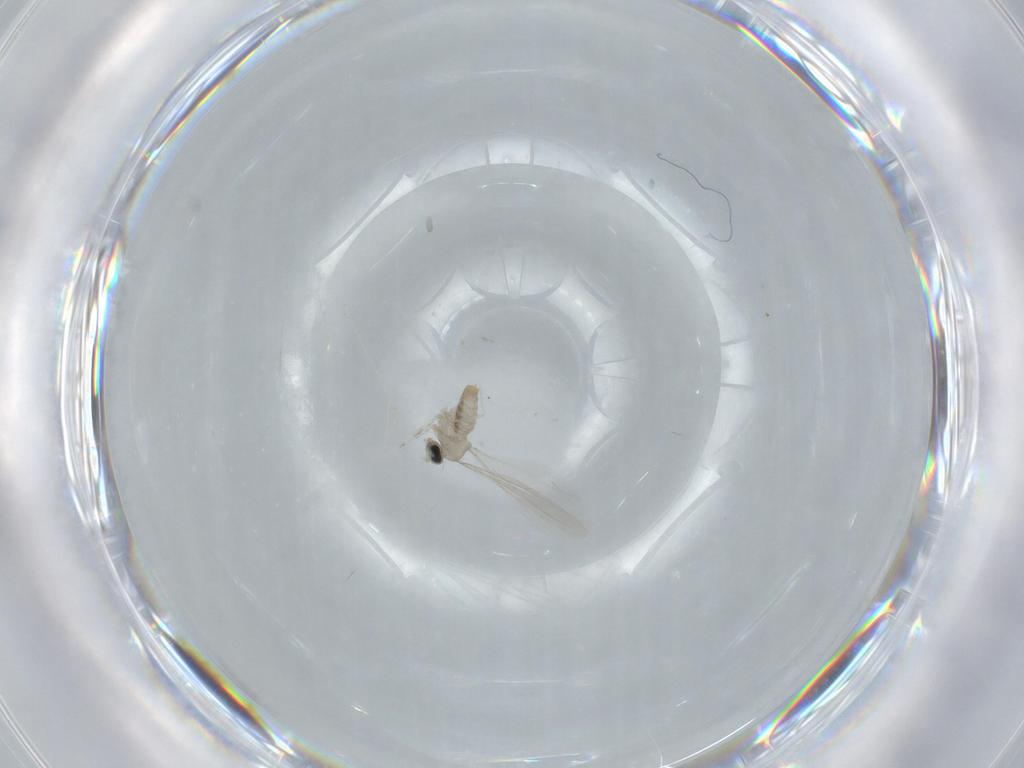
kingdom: Animalia
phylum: Arthropoda
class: Insecta
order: Diptera
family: Cecidomyiidae
